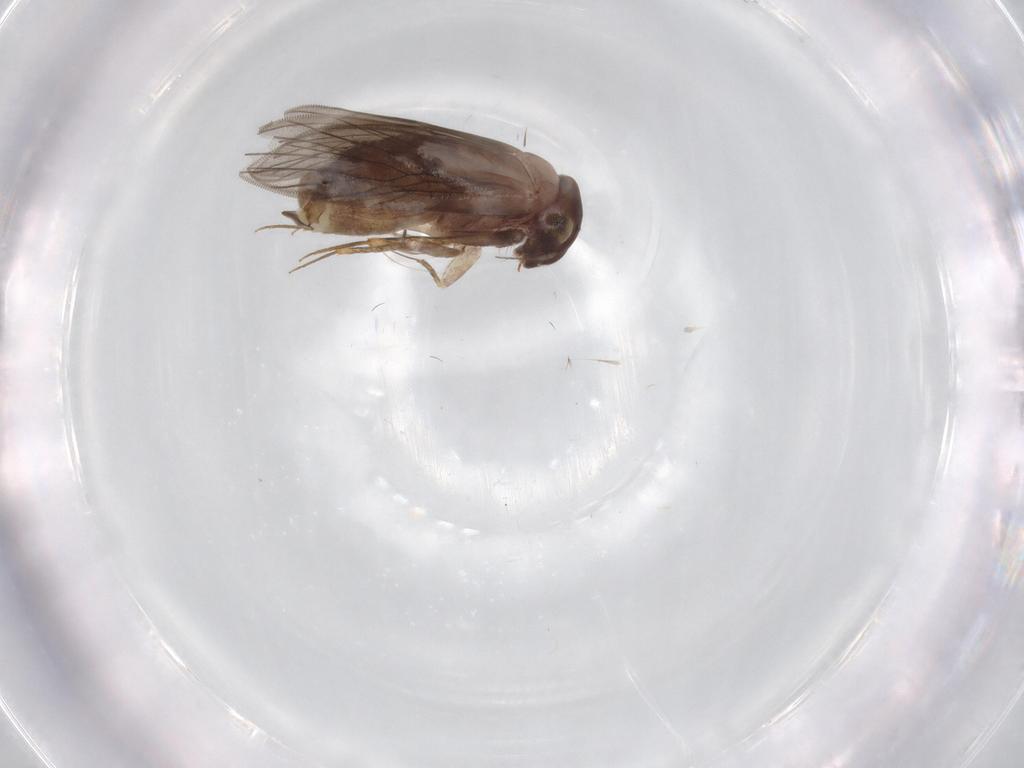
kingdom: Animalia
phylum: Arthropoda
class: Insecta
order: Psocodea
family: Lepidopsocidae
